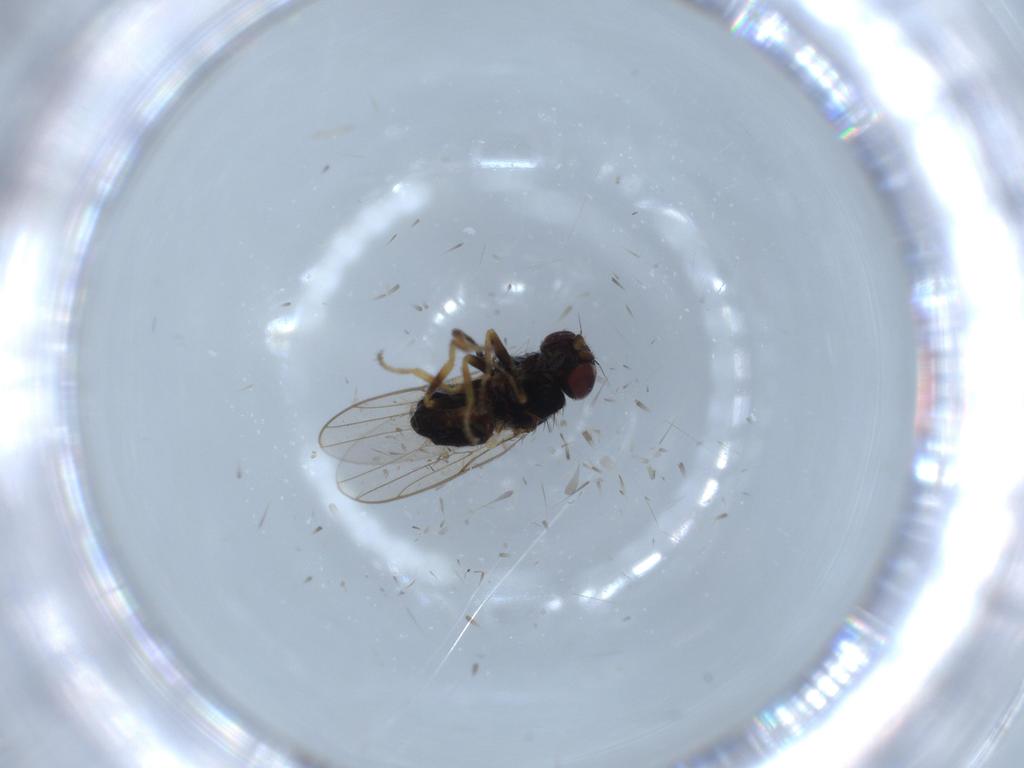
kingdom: Animalia
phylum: Arthropoda
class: Insecta
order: Diptera
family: Chloropidae
